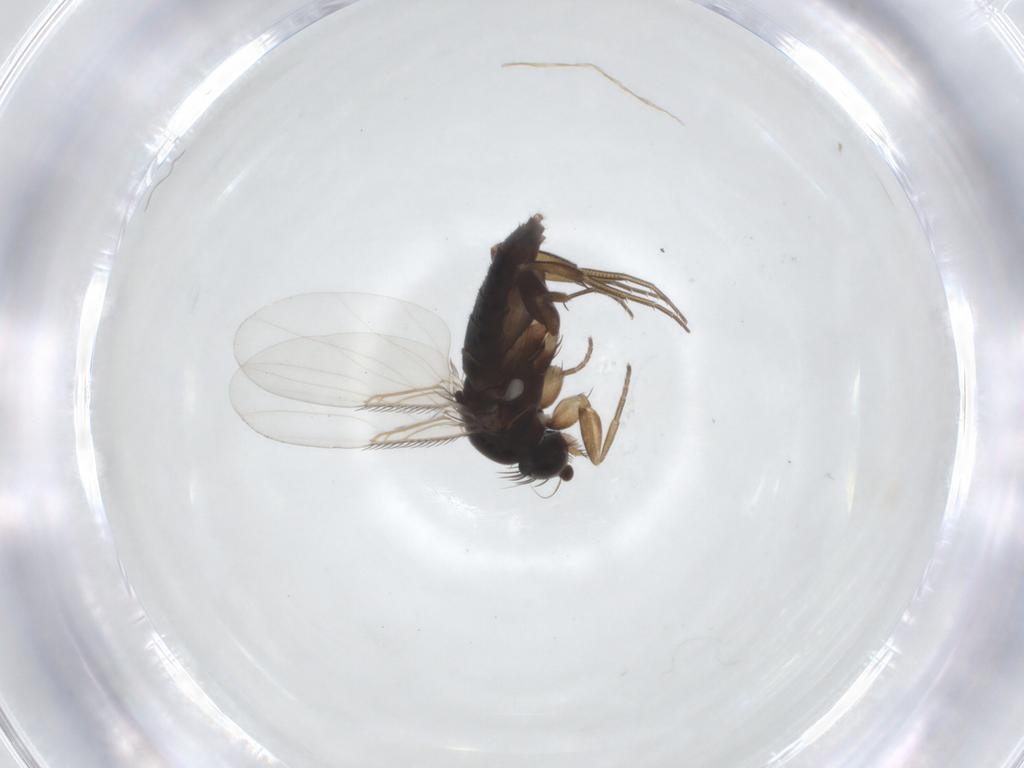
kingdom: Animalia
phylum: Arthropoda
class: Insecta
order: Diptera
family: Phoridae
